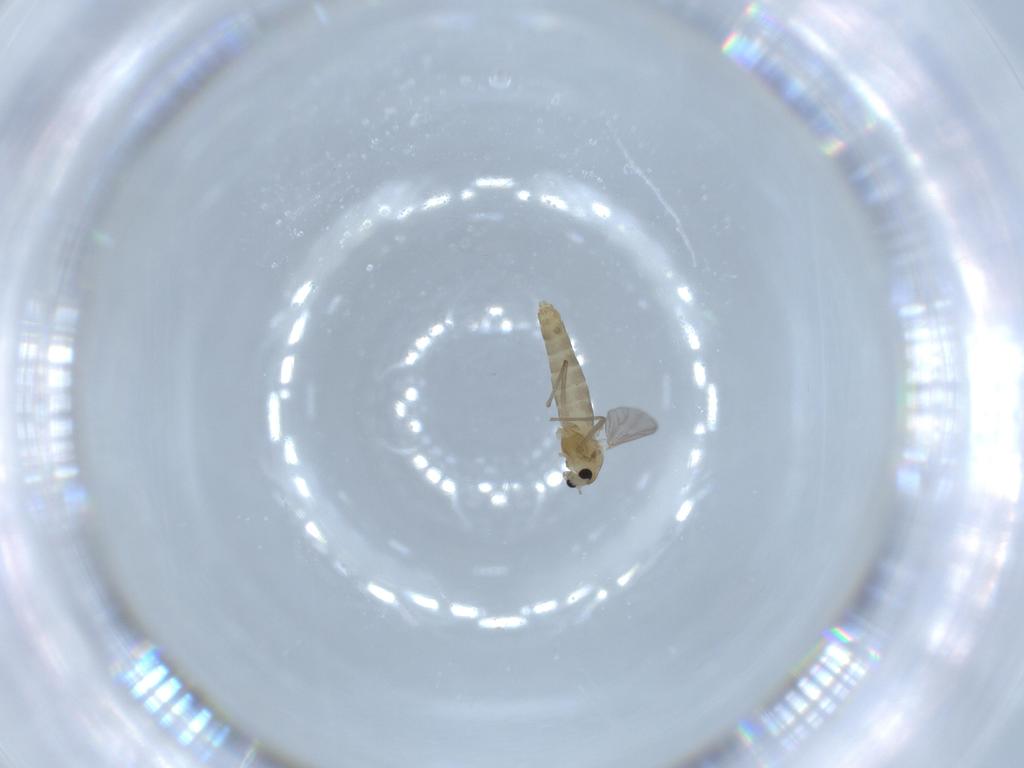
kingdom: Animalia
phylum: Arthropoda
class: Insecta
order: Diptera
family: Chironomidae
